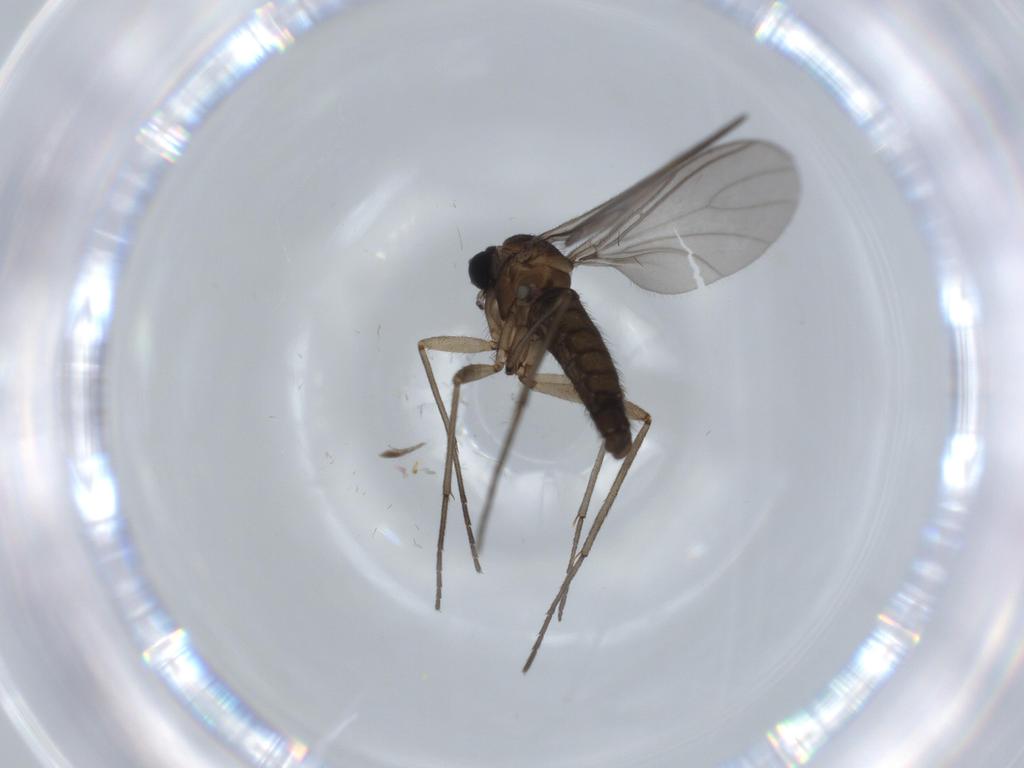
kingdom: Animalia
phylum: Arthropoda
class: Insecta
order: Diptera
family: Sciaridae
